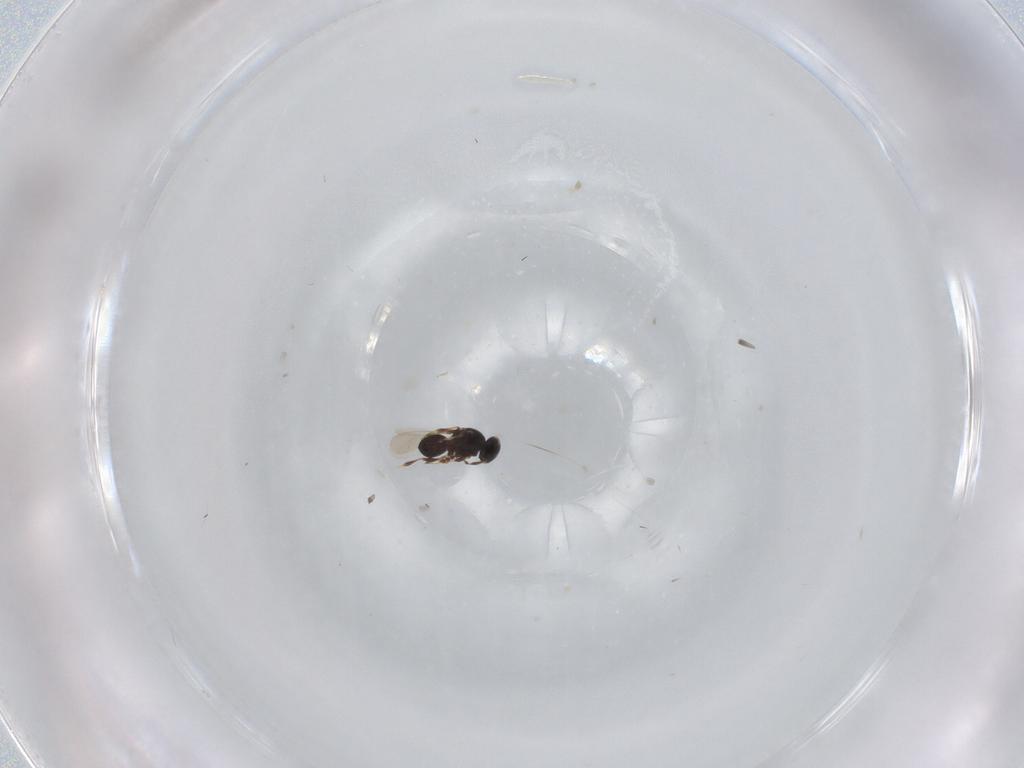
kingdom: Animalia
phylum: Arthropoda
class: Insecta
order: Hymenoptera
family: Platygastridae
